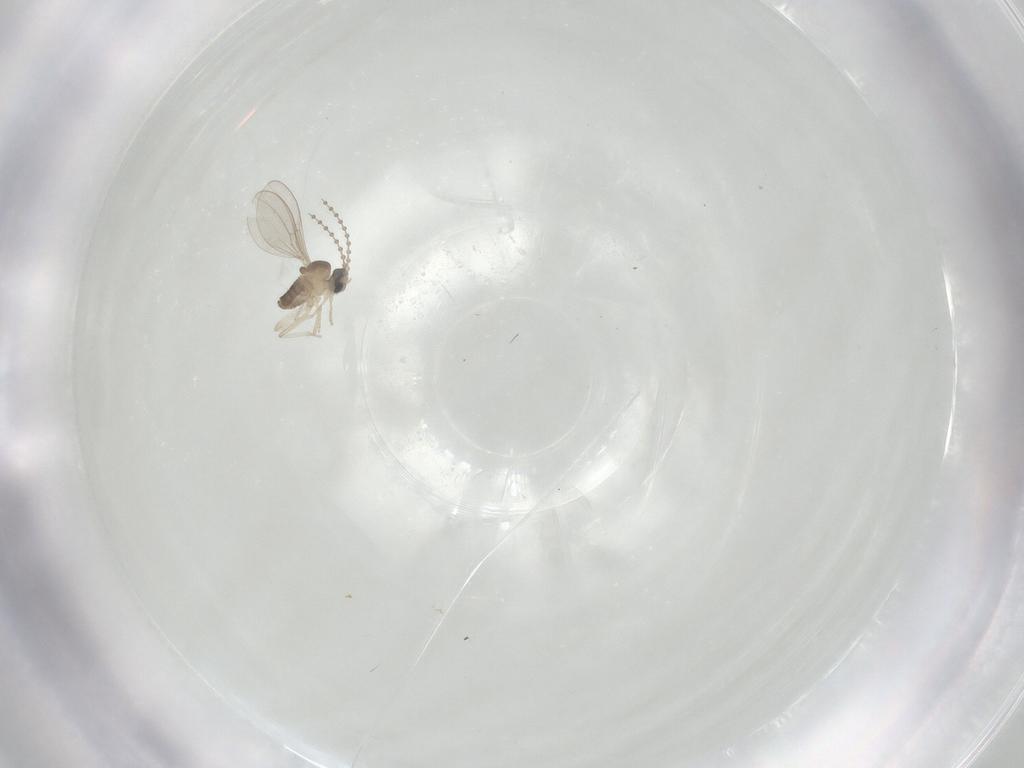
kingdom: Animalia
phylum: Arthropoda
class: Insecta
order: Diptera
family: Cecidomyiidae
